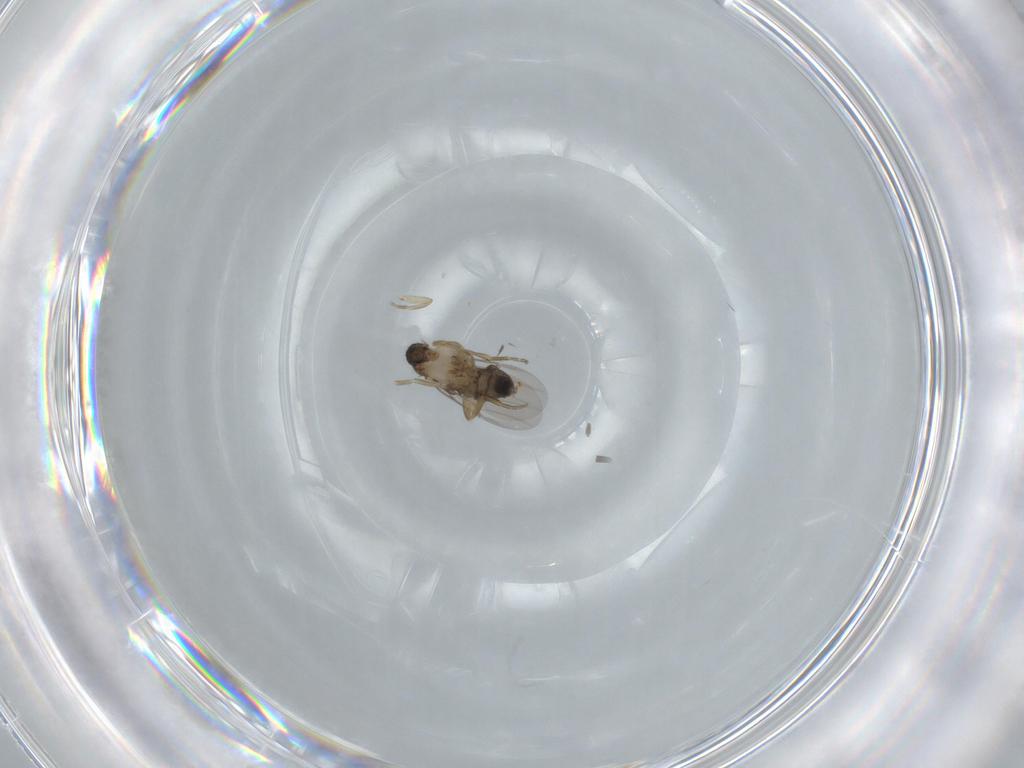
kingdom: Animalia
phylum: Arthropoda
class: Insecta
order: Diptera
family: Phoridae
